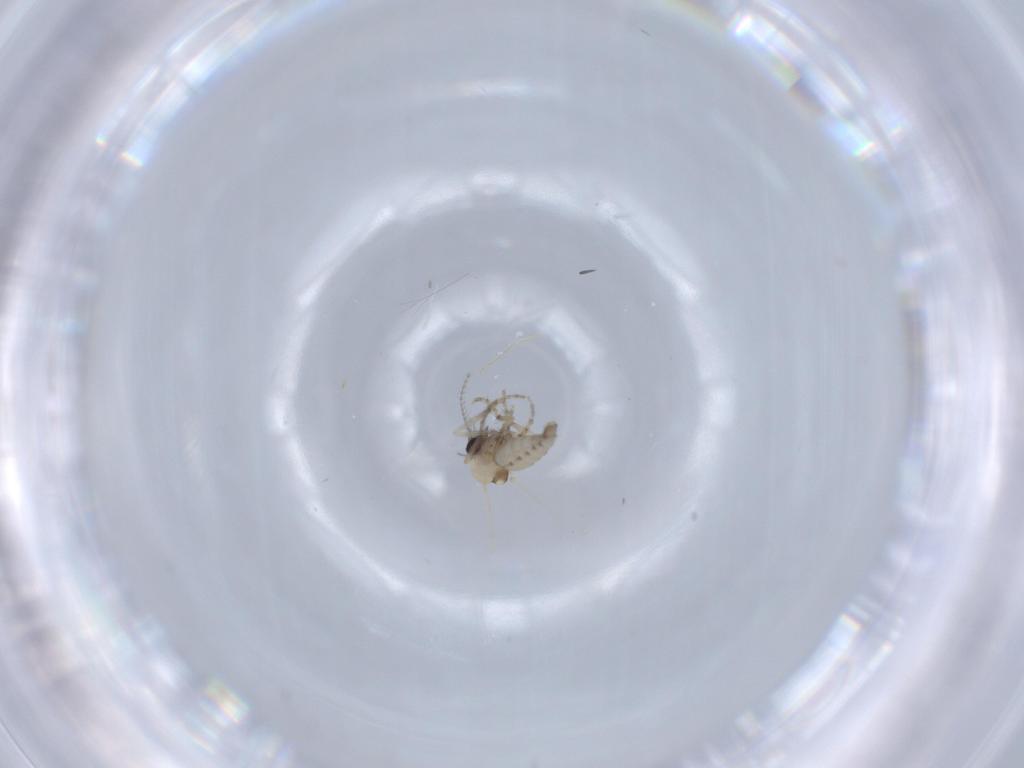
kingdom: Animalia
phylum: Arthropoda
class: Insecta
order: Diptera
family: Ceratopogonidae
